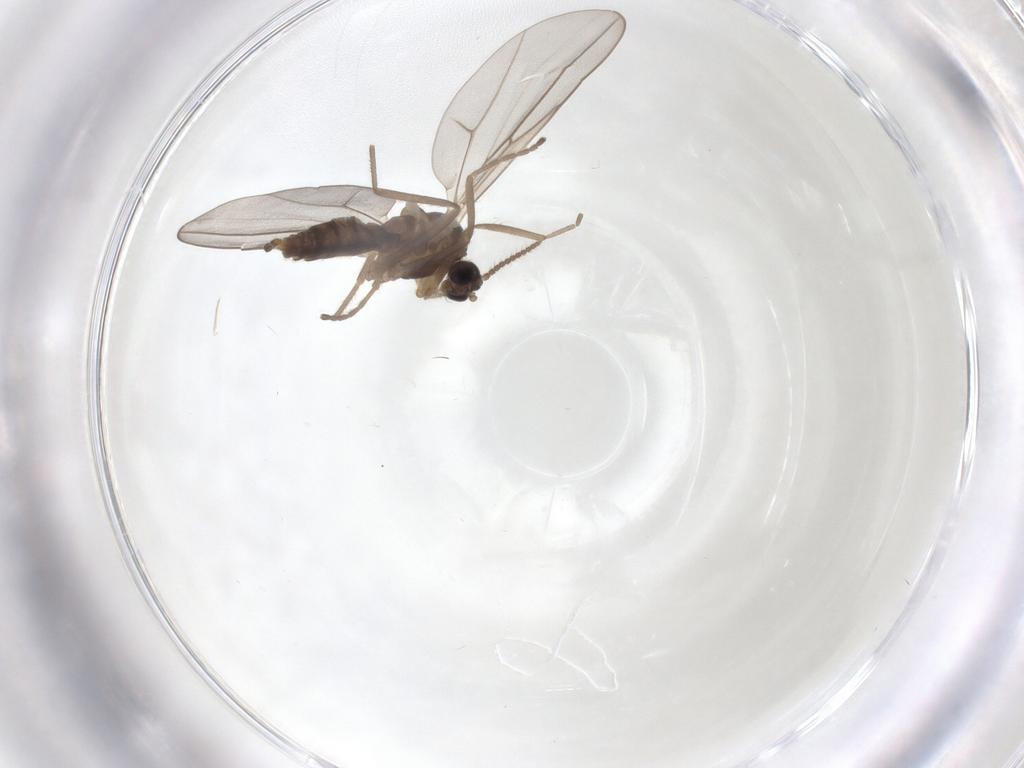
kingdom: Animalia
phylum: Arthropoda
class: Insecta
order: Diptera
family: Cecidomyiidae
